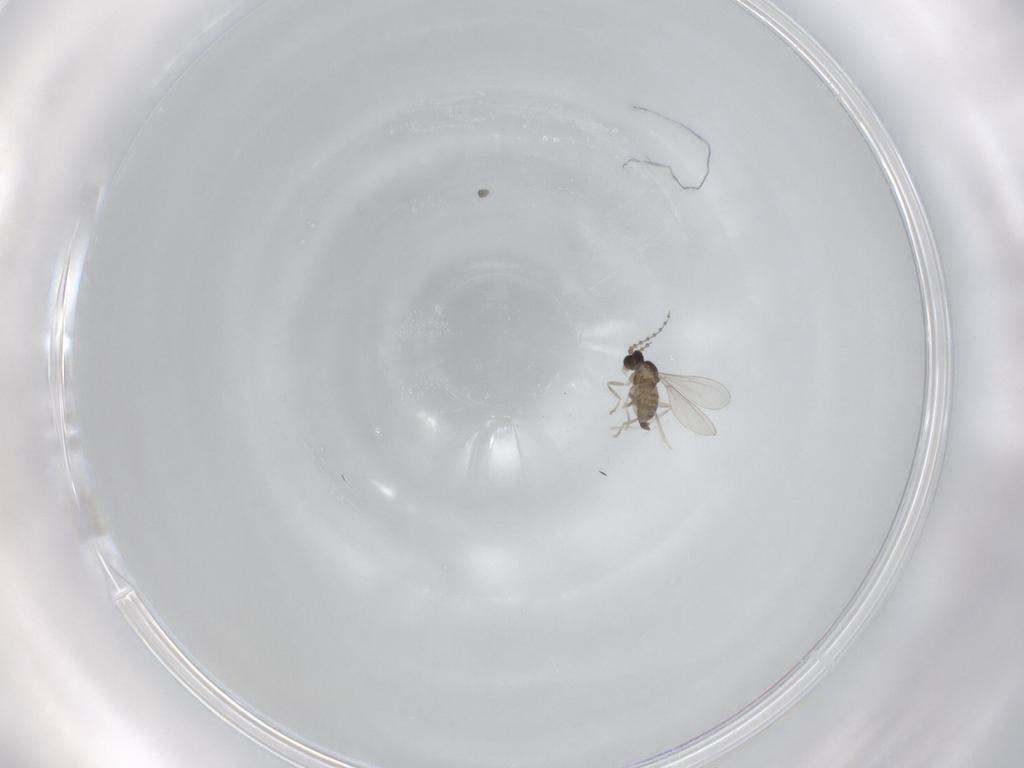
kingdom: Animalia
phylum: Arthropoda
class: Insecta
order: Diptera
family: Cecidomyiidae
